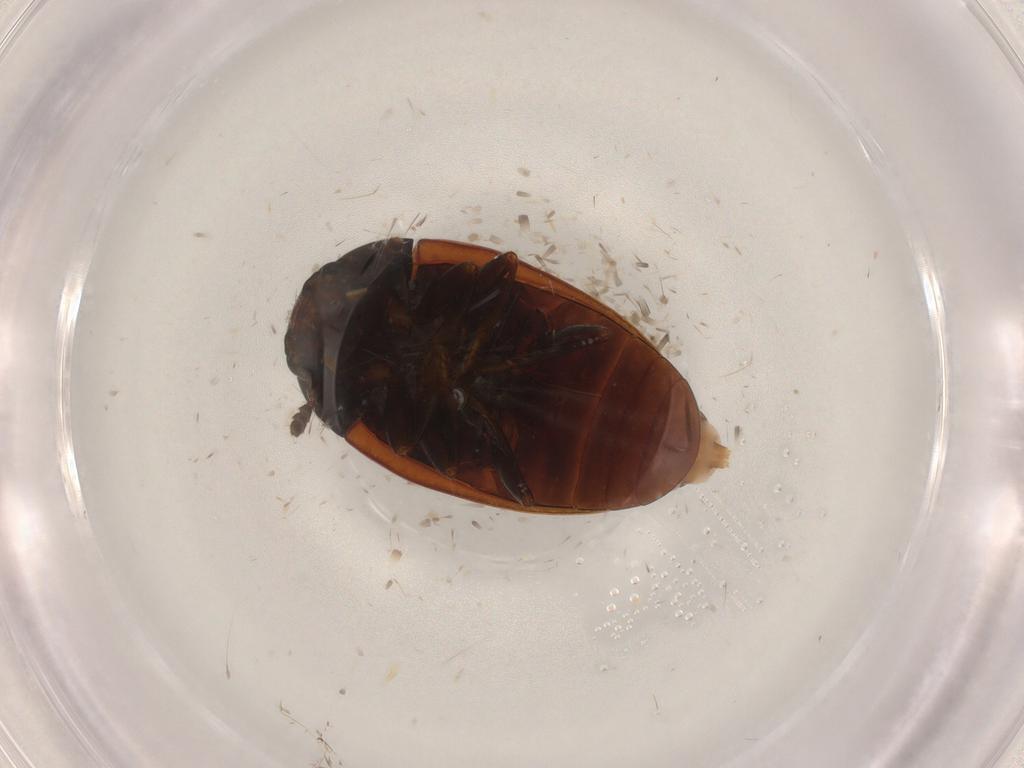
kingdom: Animalia
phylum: Arthropoda
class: Insecta
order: Coleoptera
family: Erotylidae
